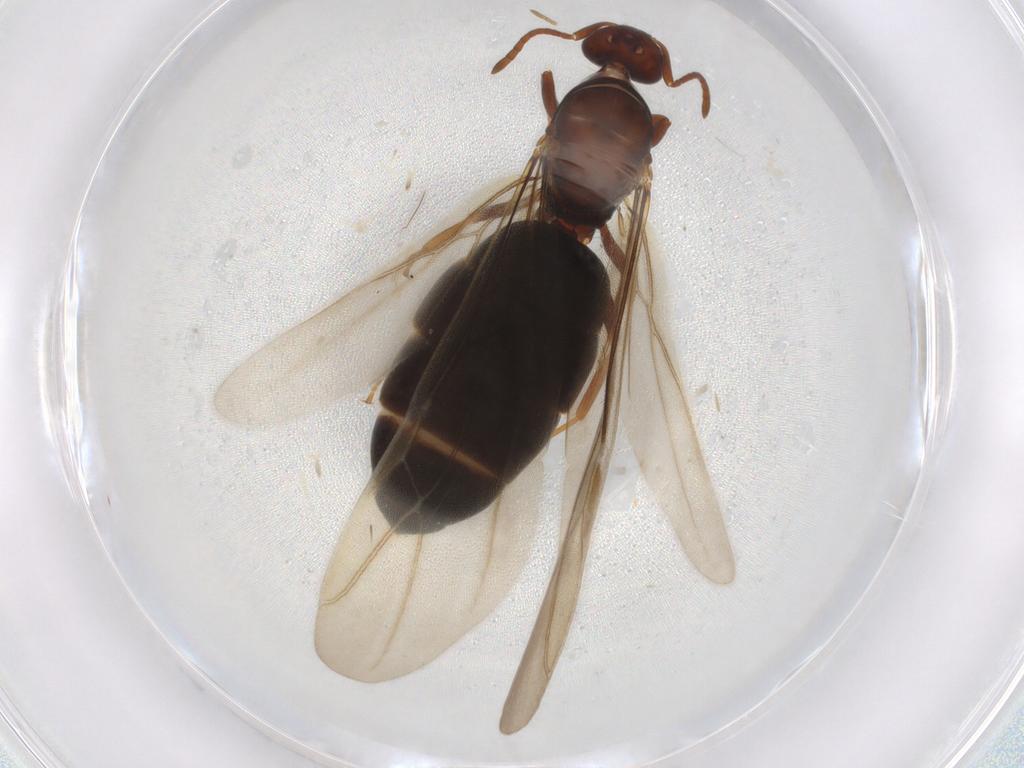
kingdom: Animalia
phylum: Arthropoda
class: Insecta
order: Hymenoptera
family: Formicidae
